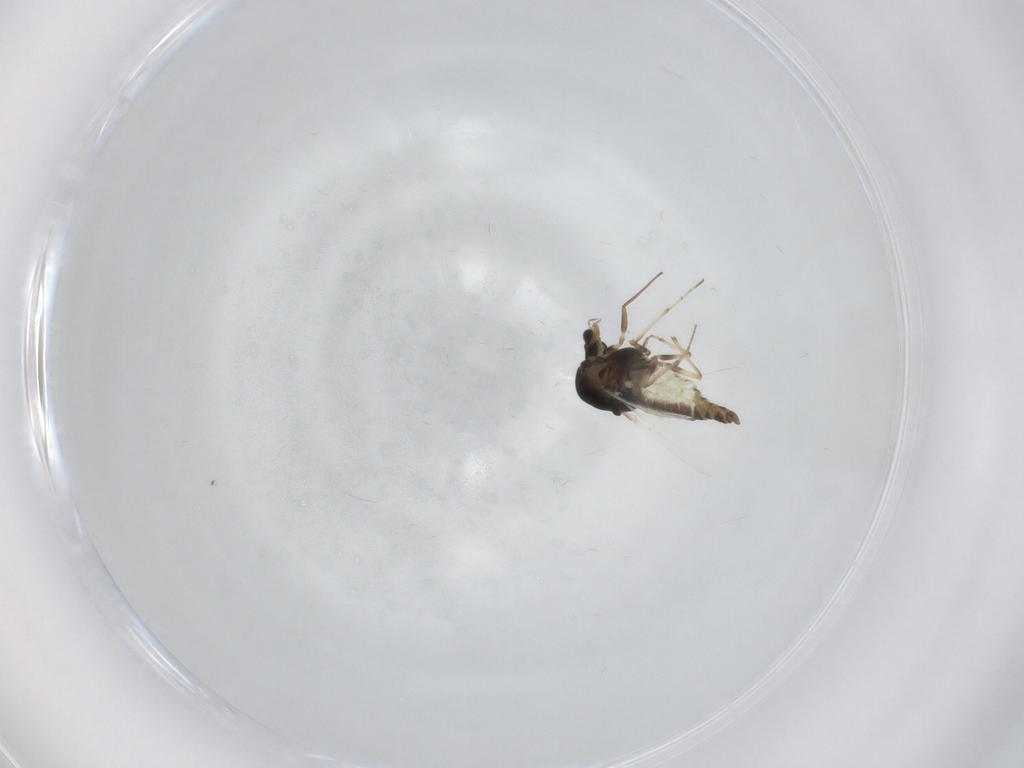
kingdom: Animalia
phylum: Arthropoda
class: Insecta
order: Diptera
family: Chironomidae
